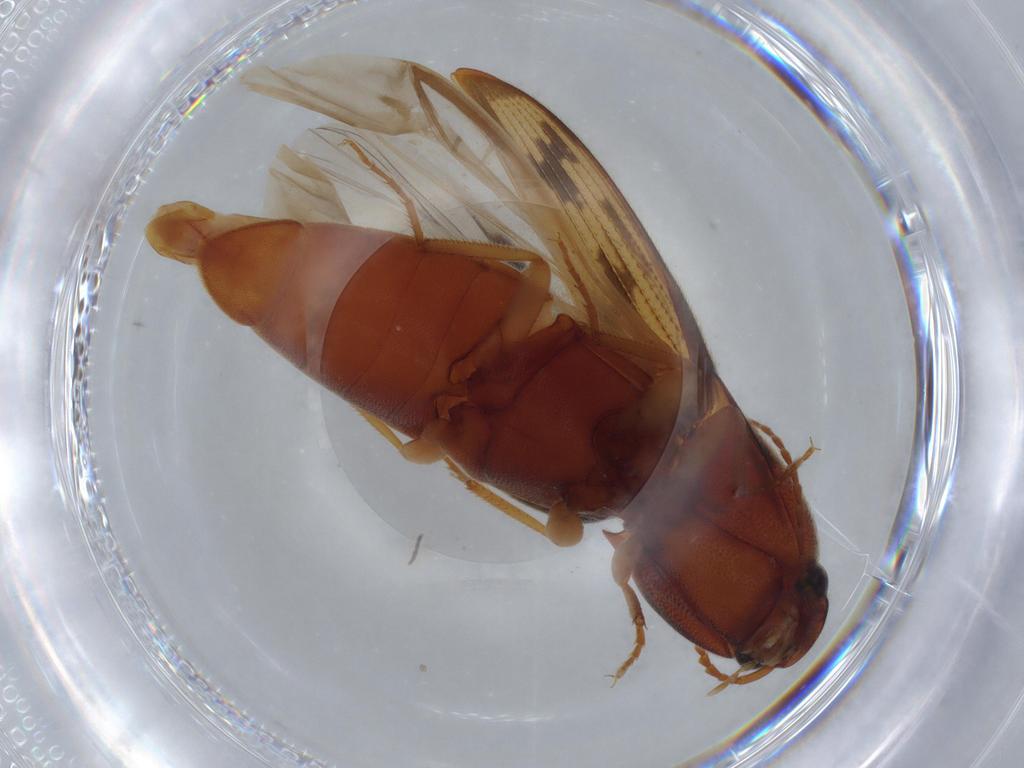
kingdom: Animalia
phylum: Arthropoda
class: Insecta
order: Coleoptera
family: Elateridae
